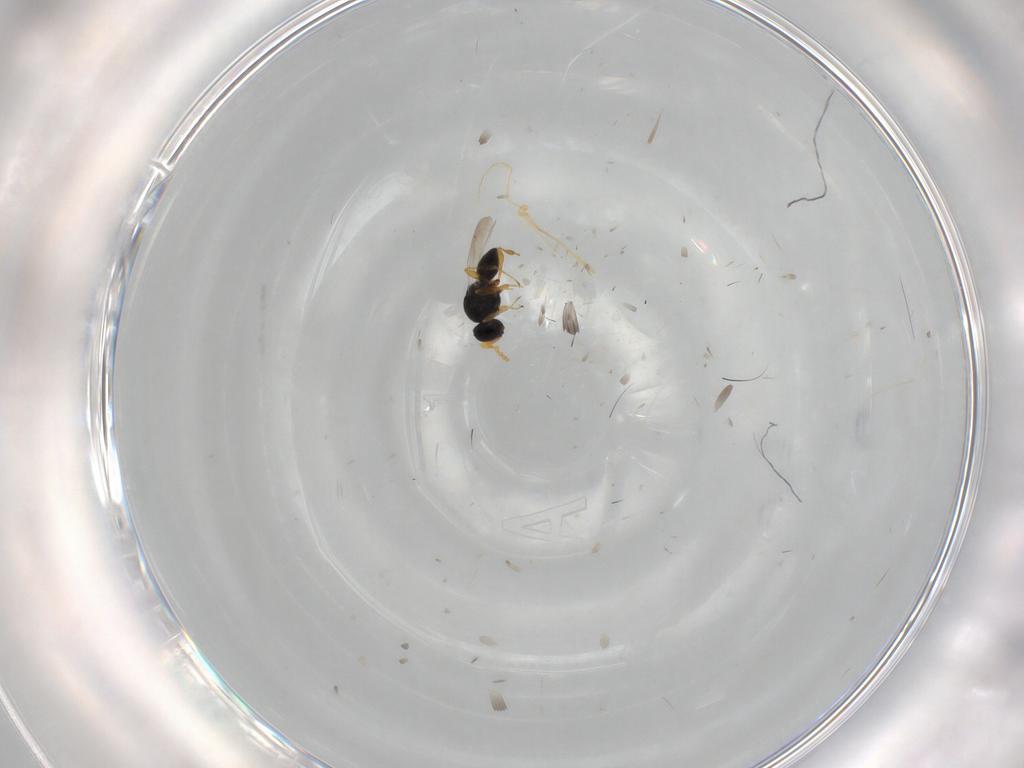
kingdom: Animalia
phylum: Arthropoda
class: Insecta
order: Hymenoptera
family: Platygastridae
